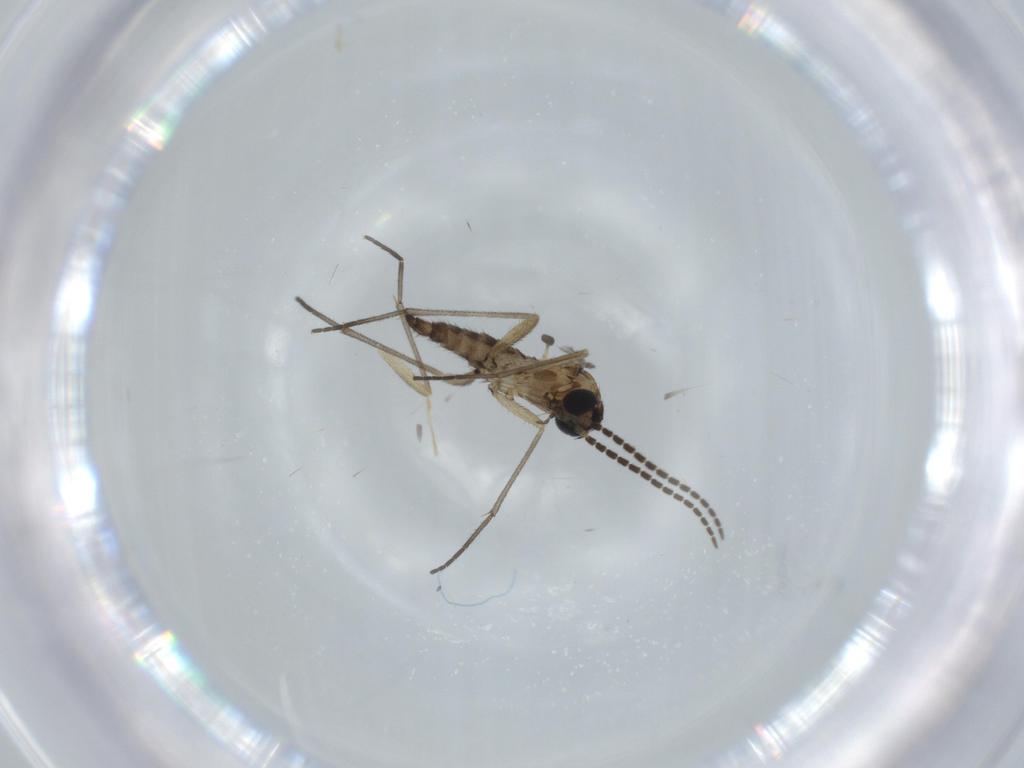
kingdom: Animalia
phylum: Arthropoda
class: Insecta
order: Diptera
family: Sciaridae
